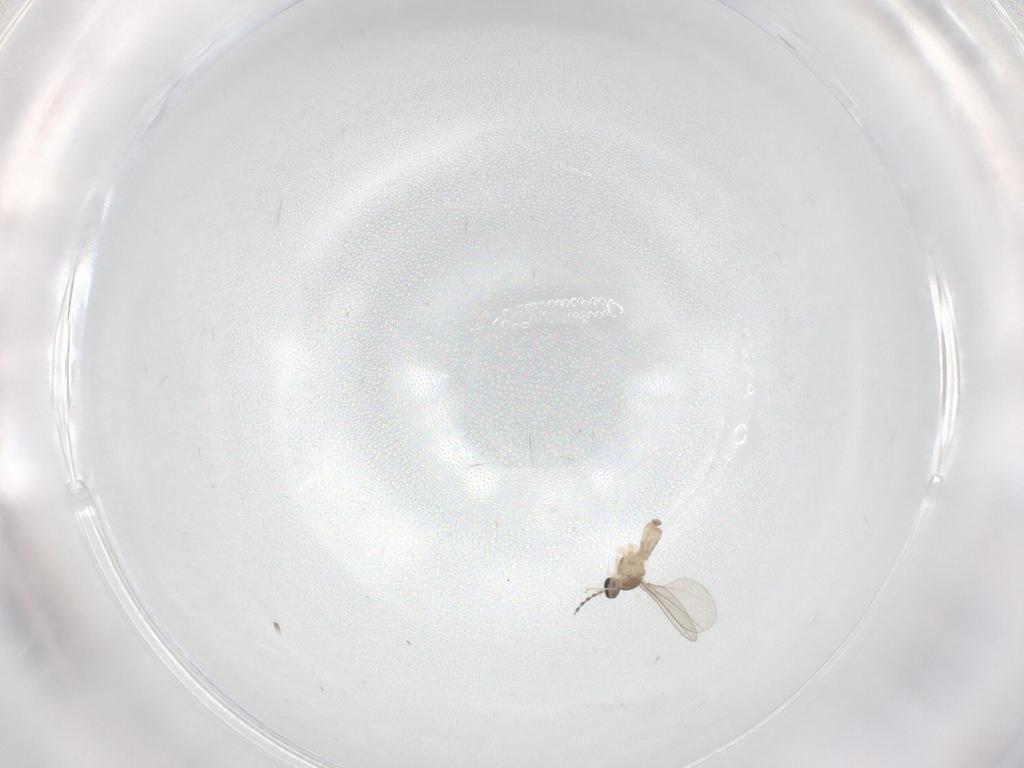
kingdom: Animalia
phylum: Arthropoda
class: Insecta
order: Diptera
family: Cecidomyiidae
